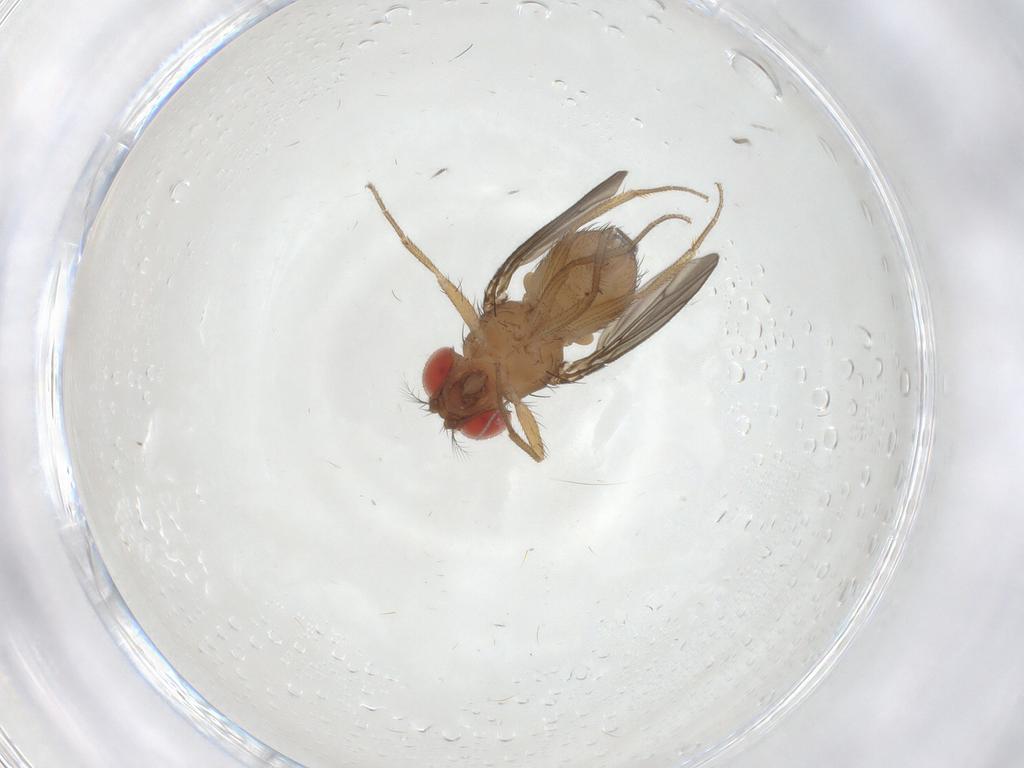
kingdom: Animalia
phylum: Arthropoda
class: Insecta
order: Diptera
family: Drosophilidae
